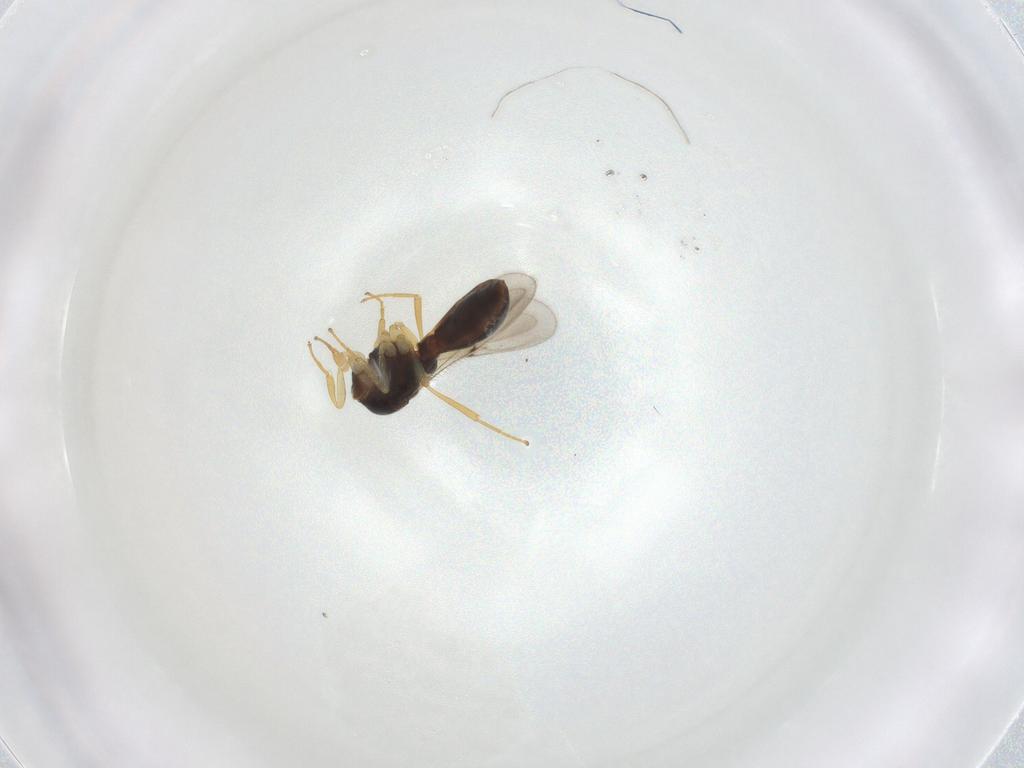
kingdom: Animalia
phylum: Arthropoda
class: Insecta
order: Hymenoptera
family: Scelionidae
